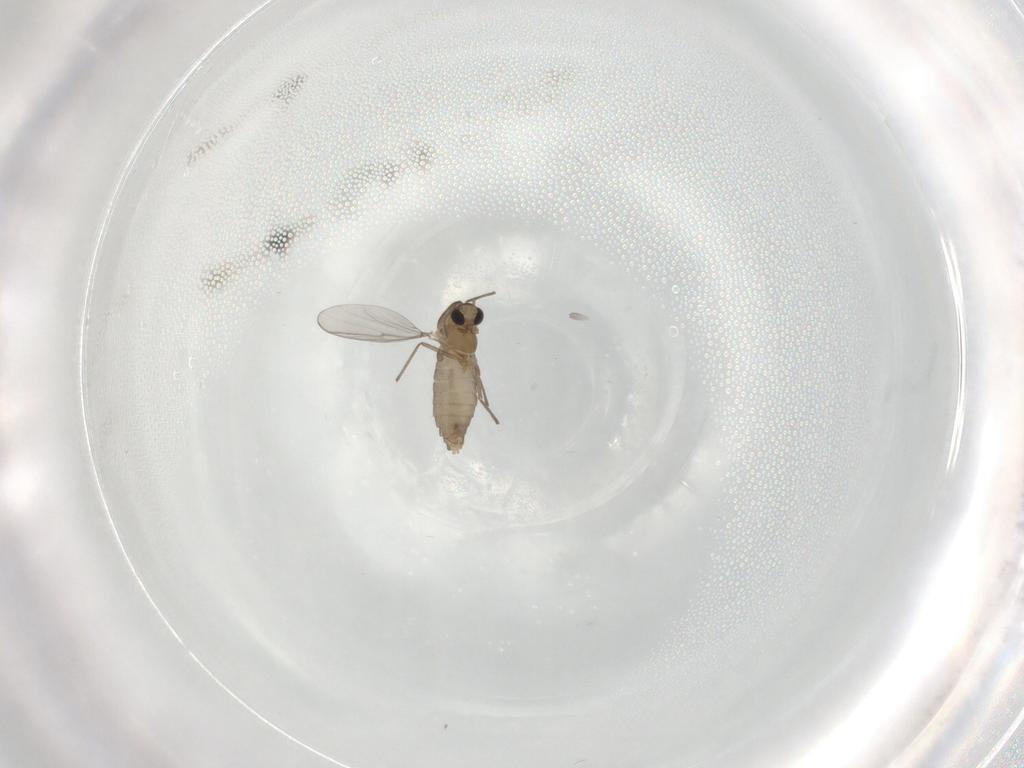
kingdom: Animalia
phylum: Arthropoda
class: Insecta
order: Diptera
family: Chironomidae
